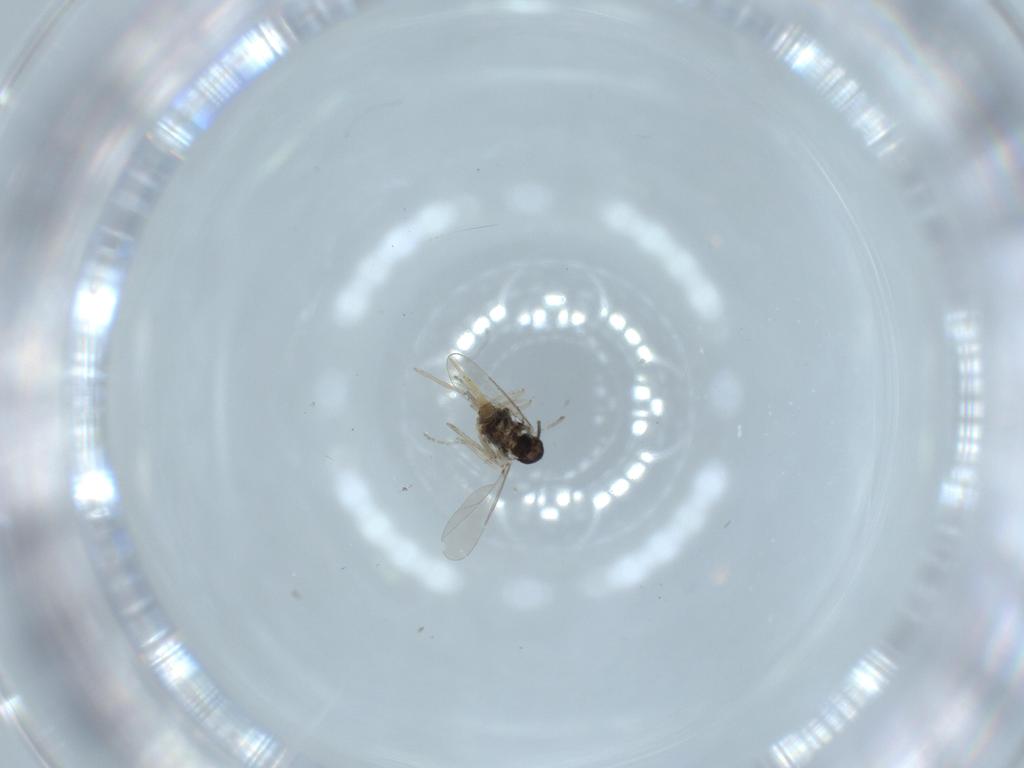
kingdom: Animalia
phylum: Arthropoda
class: Insecta
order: Diptera
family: Cecidomyiidae
